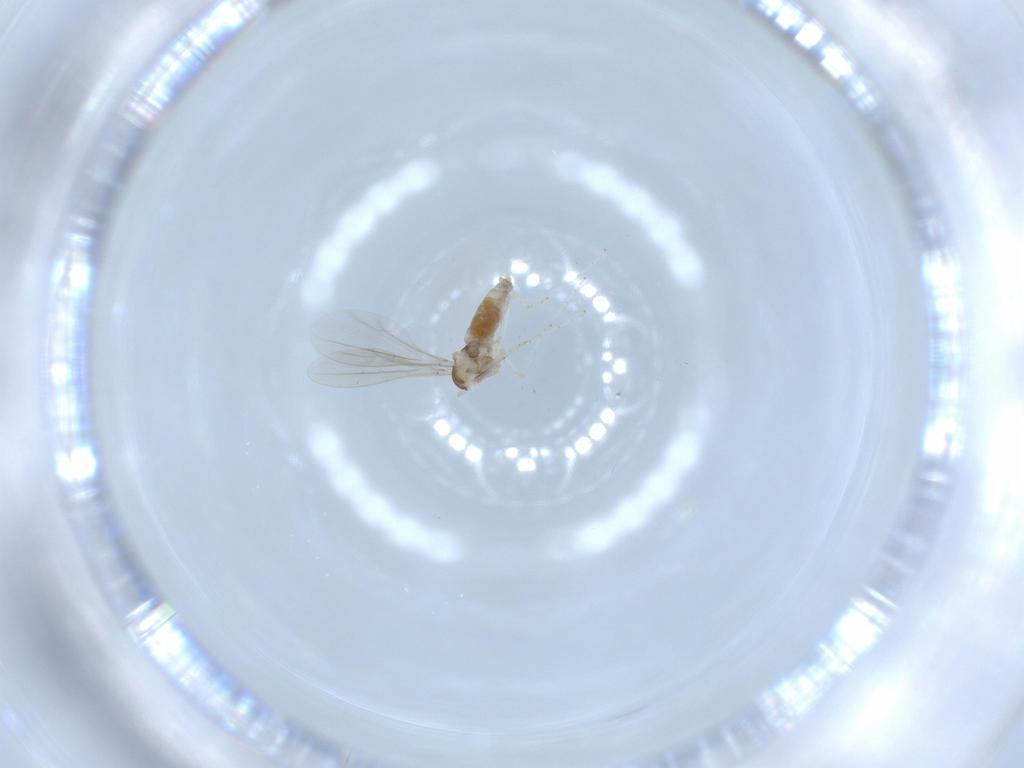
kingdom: Animalia
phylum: Arthropoda
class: Insecta
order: Diptera
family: Cecidomyiidae
